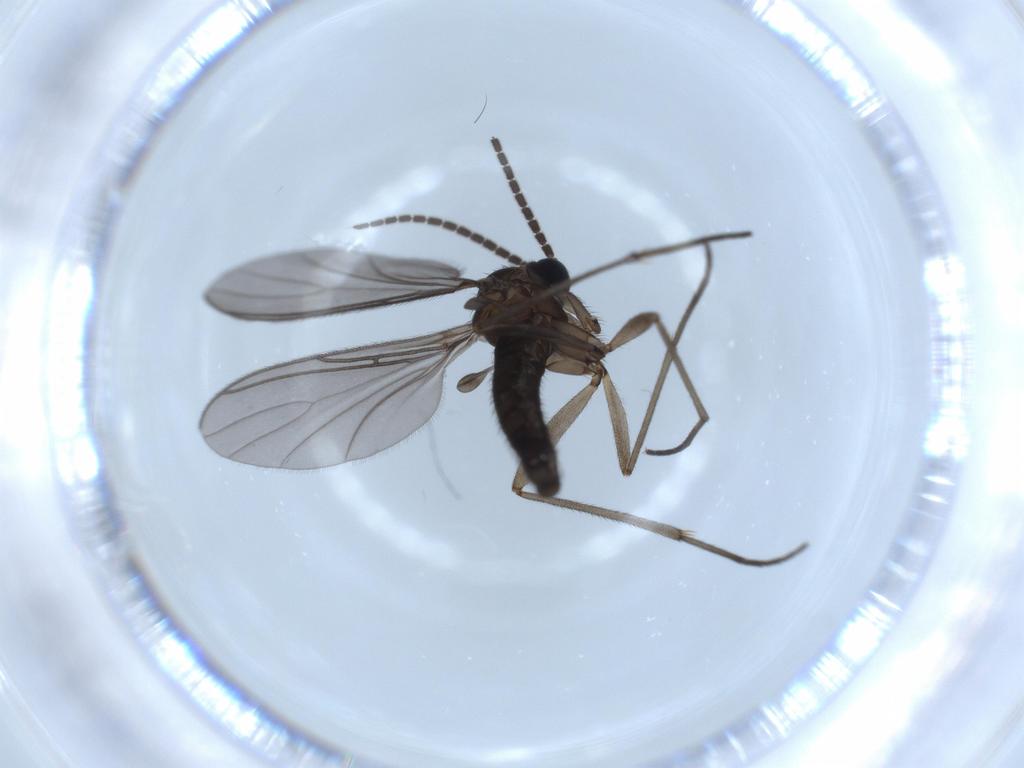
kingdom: Animalia
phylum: Arthropoda
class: Insecta
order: Diptera
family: Sciaridae
